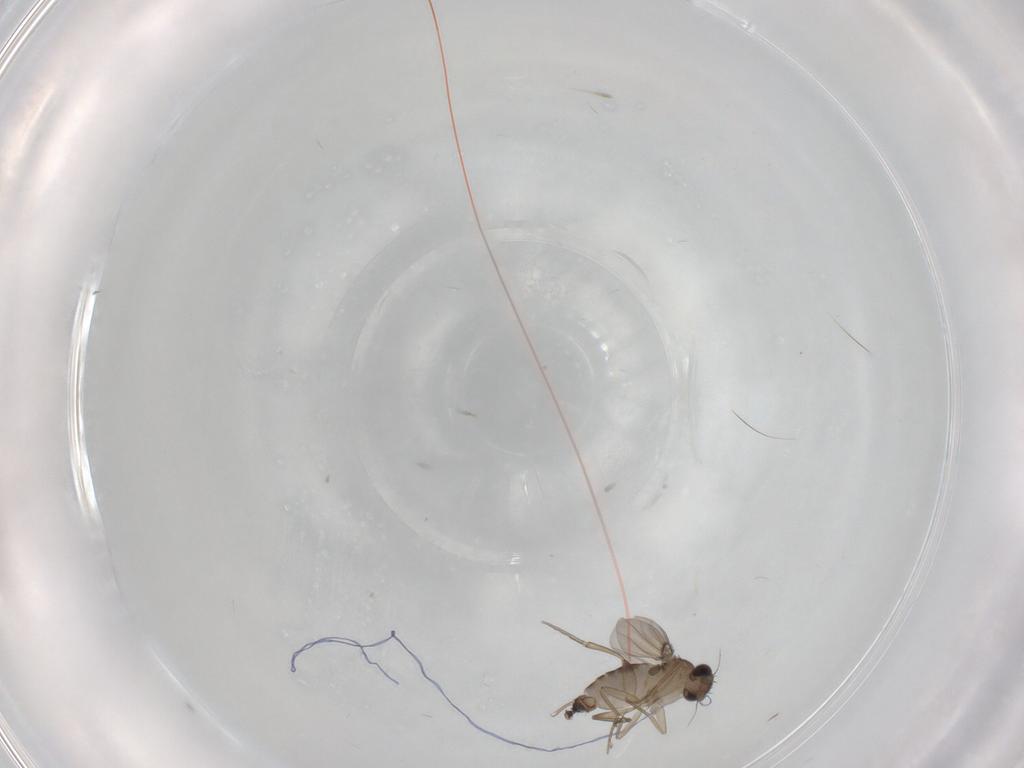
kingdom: Animalia
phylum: Arthropoda
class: Insecta
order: Diptera
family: Phoridae
